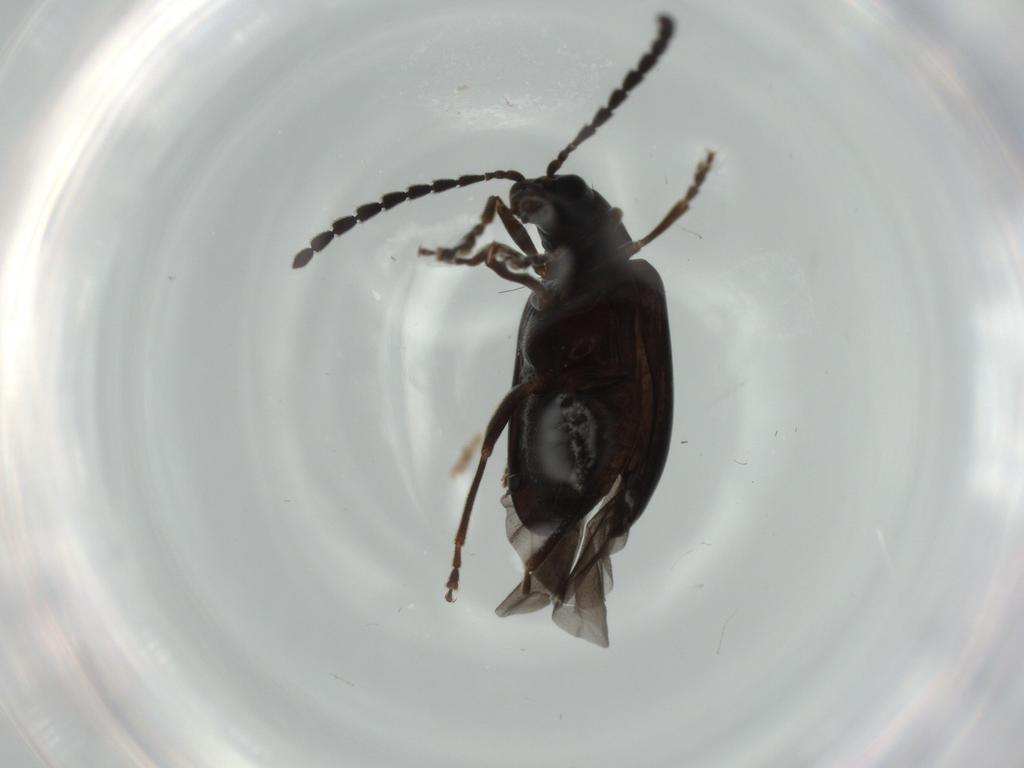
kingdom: Animalia
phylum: Arthropoda
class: Insecta
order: Coleoptera
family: Chrysomelidae
